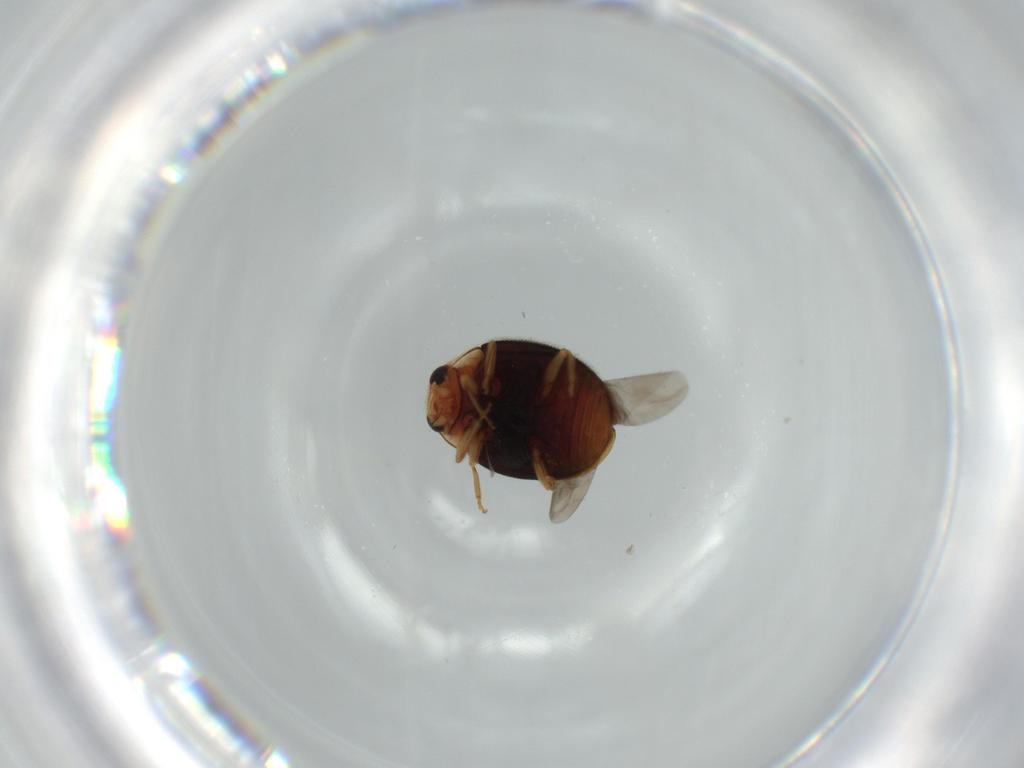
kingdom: Animalia
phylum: Arthropoda
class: Insecta
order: Coleoptera
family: Coccinellidae
